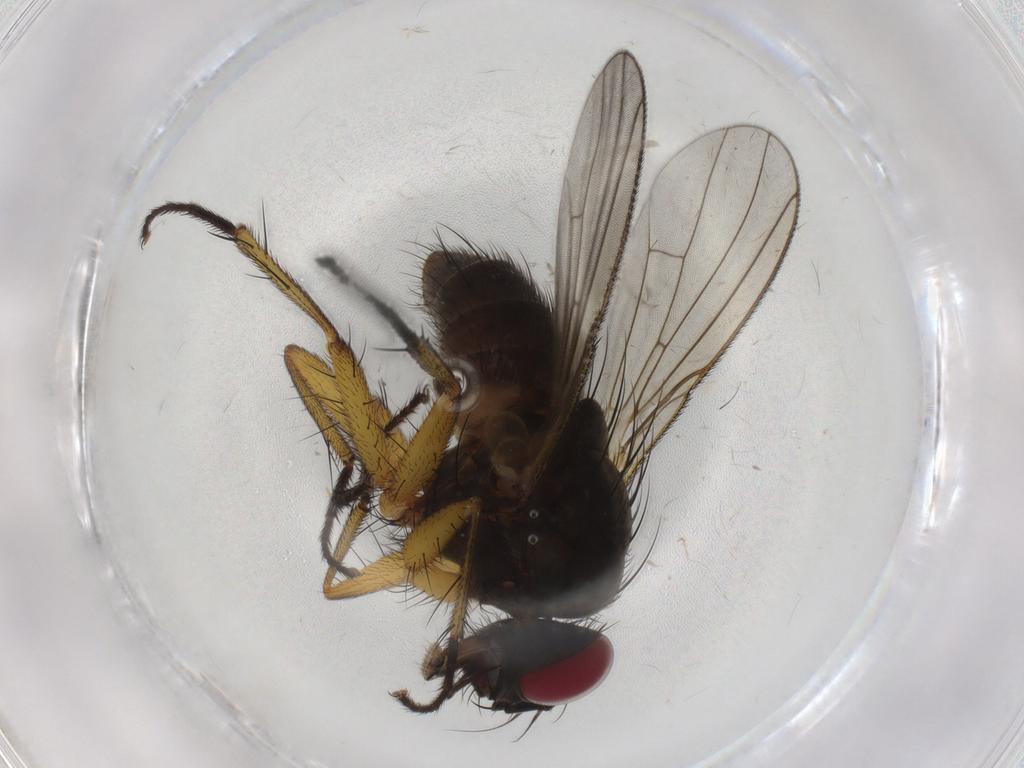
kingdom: Animalia
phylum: Arthropoda
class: Insecta
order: Diptera
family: Muscidae
